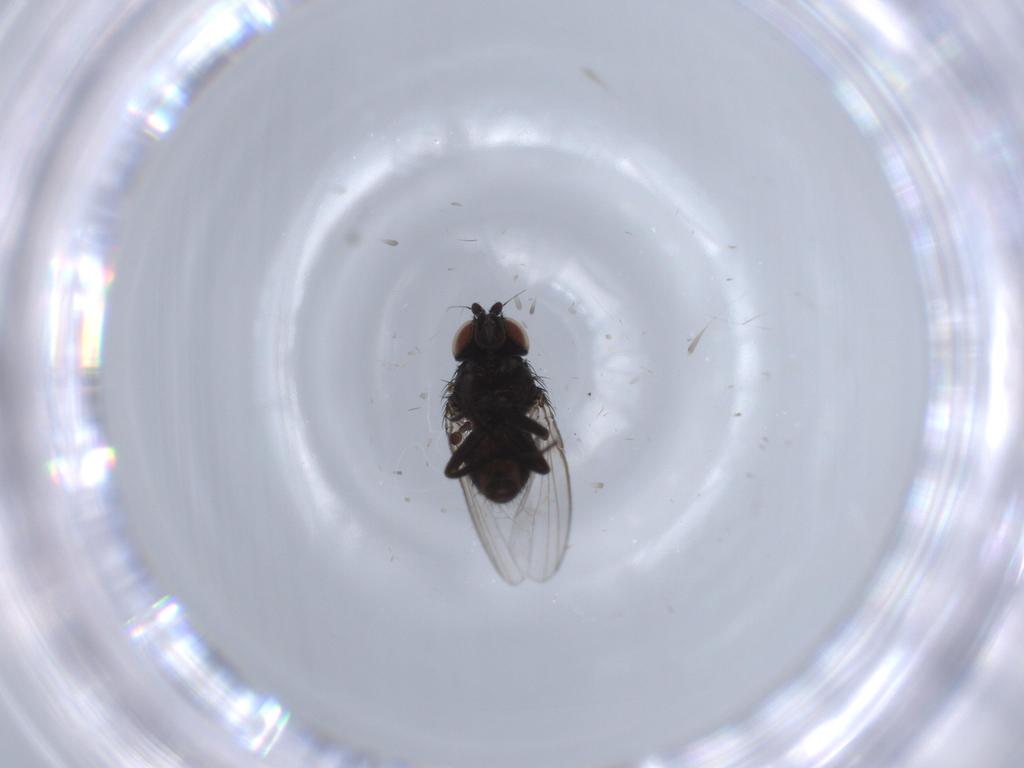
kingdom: Animalia
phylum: Arthropoda
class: Insecta
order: Diptera
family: Milichiidae
